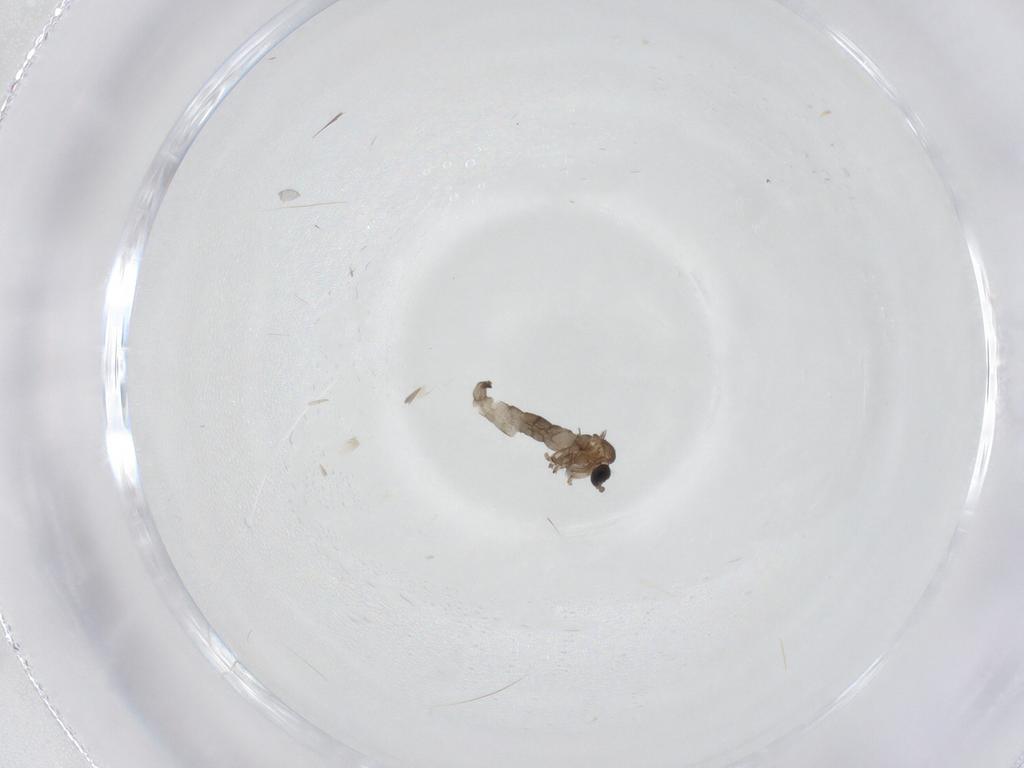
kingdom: Animalia
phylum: Arthropoda
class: Insecta
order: Diptera
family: Sciaridae
